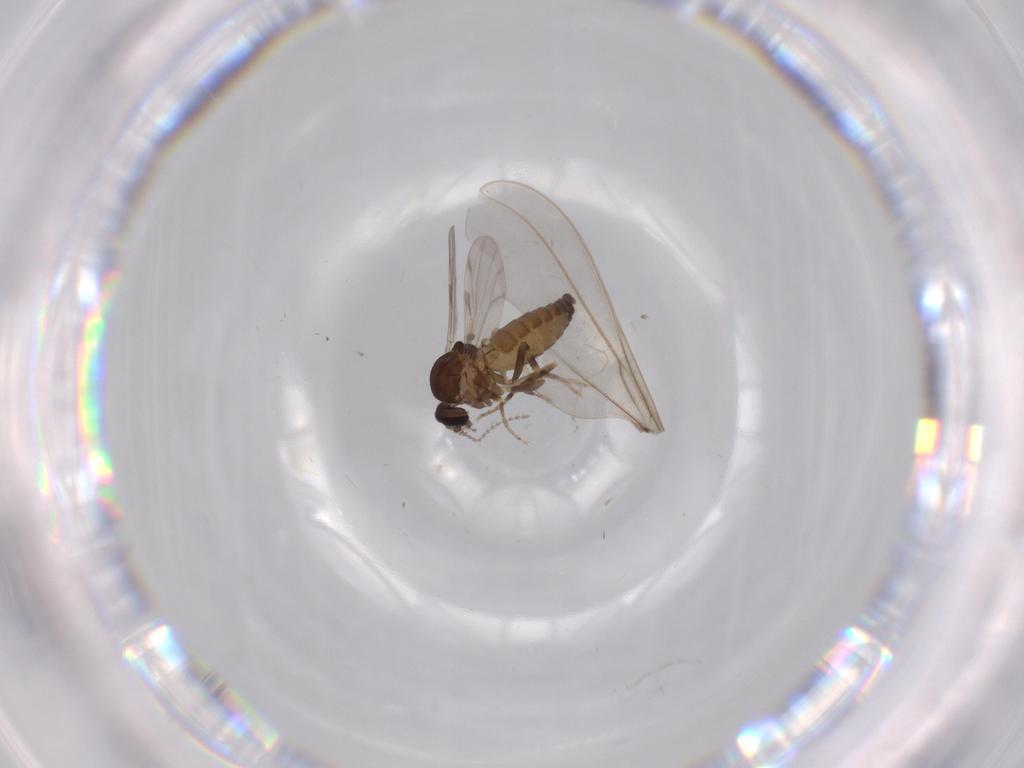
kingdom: Animalia
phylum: Arthropoda
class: Insecta
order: Diptera
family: Ceratopogonidae
